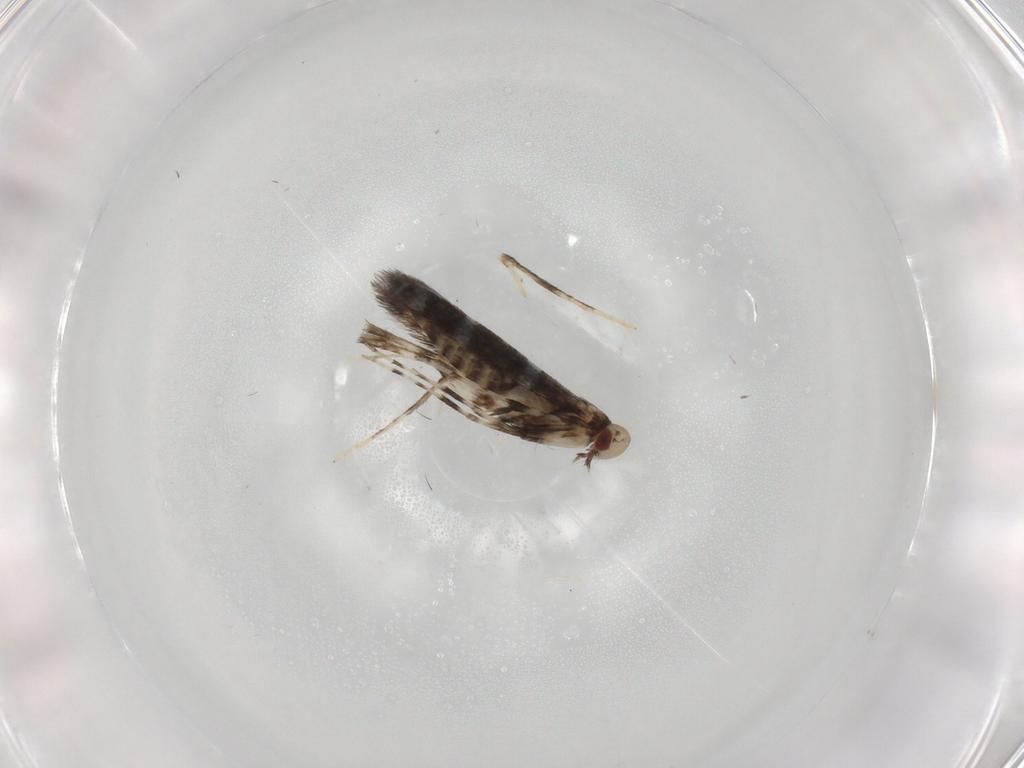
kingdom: Animalia
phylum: Arthropoda
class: Insecta
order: Lepidoptera
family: Gracillariidae
